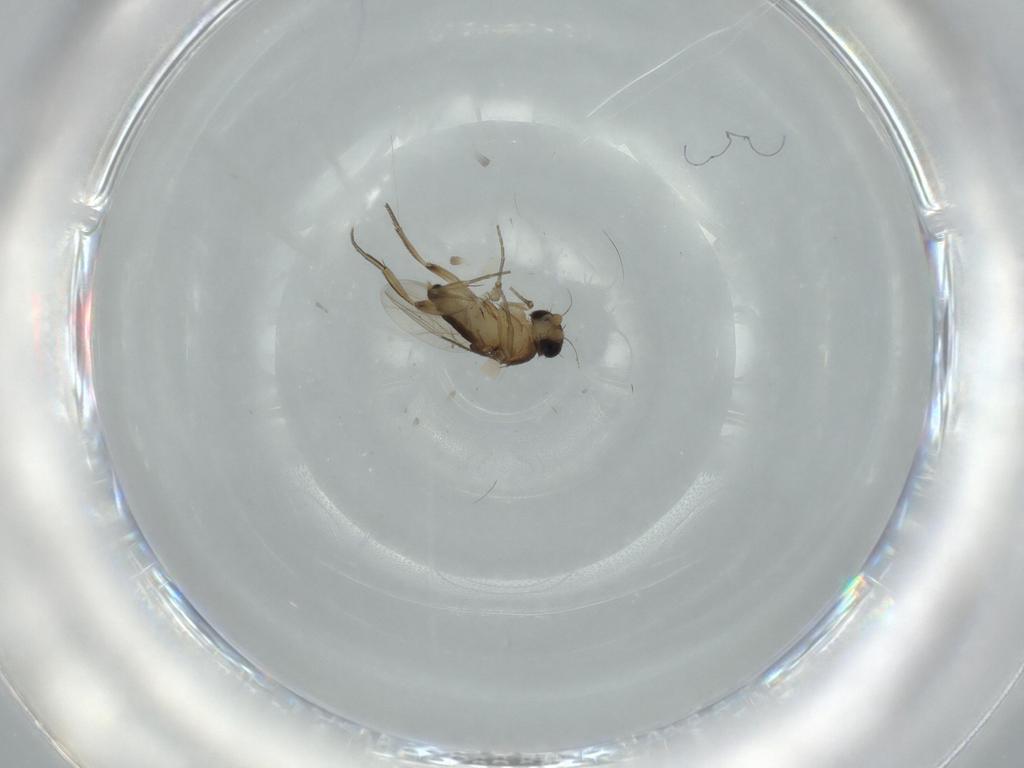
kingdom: Animalia
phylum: Arthropoda
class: Insecta
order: Diptera
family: Phoridae
